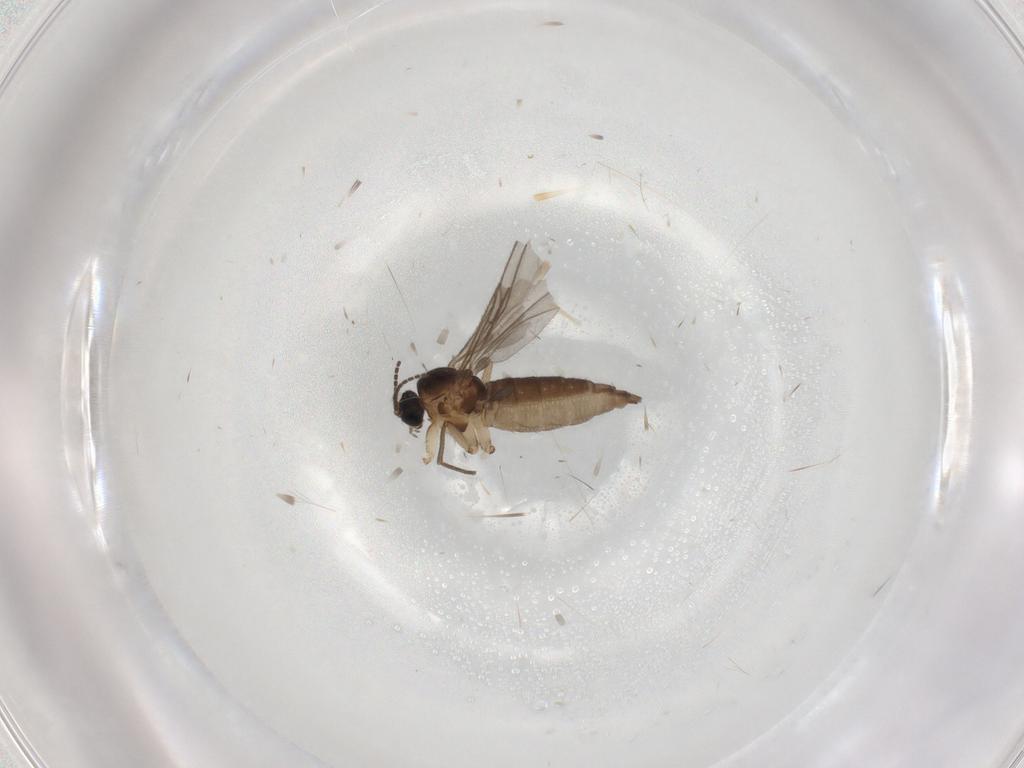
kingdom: Animalia
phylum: Arthropoda
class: Insecta
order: Diptera
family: Sciaridae
